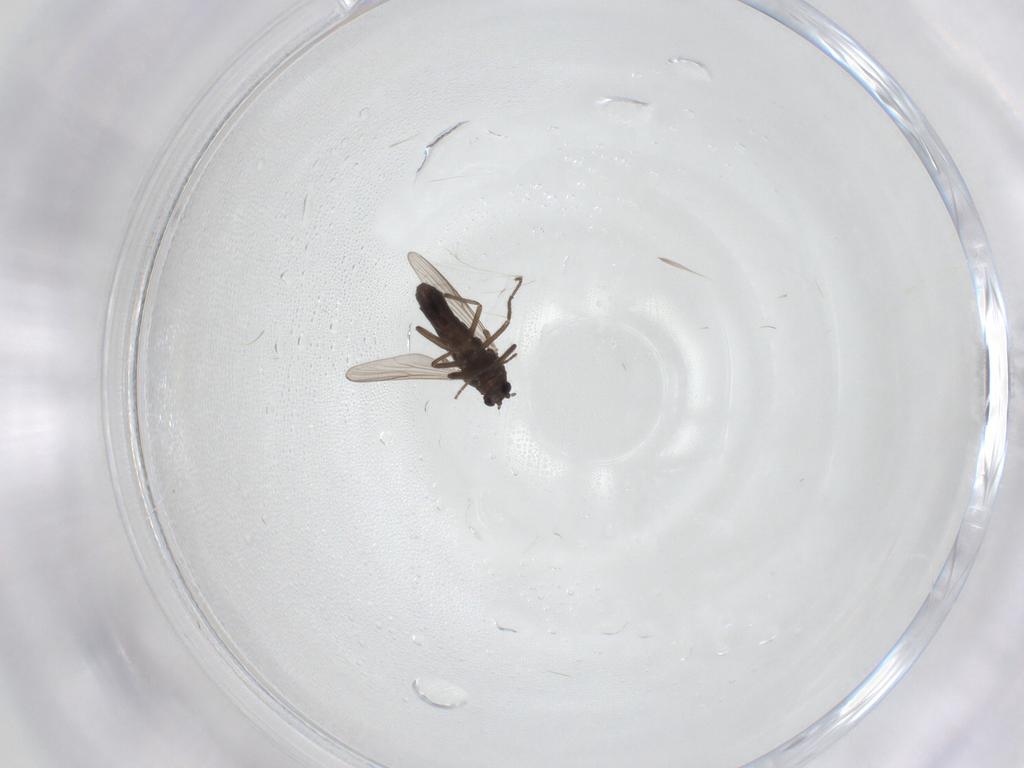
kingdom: Animalia
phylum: Arthropoda
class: Insecta
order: Diptera
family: Chironomidae
